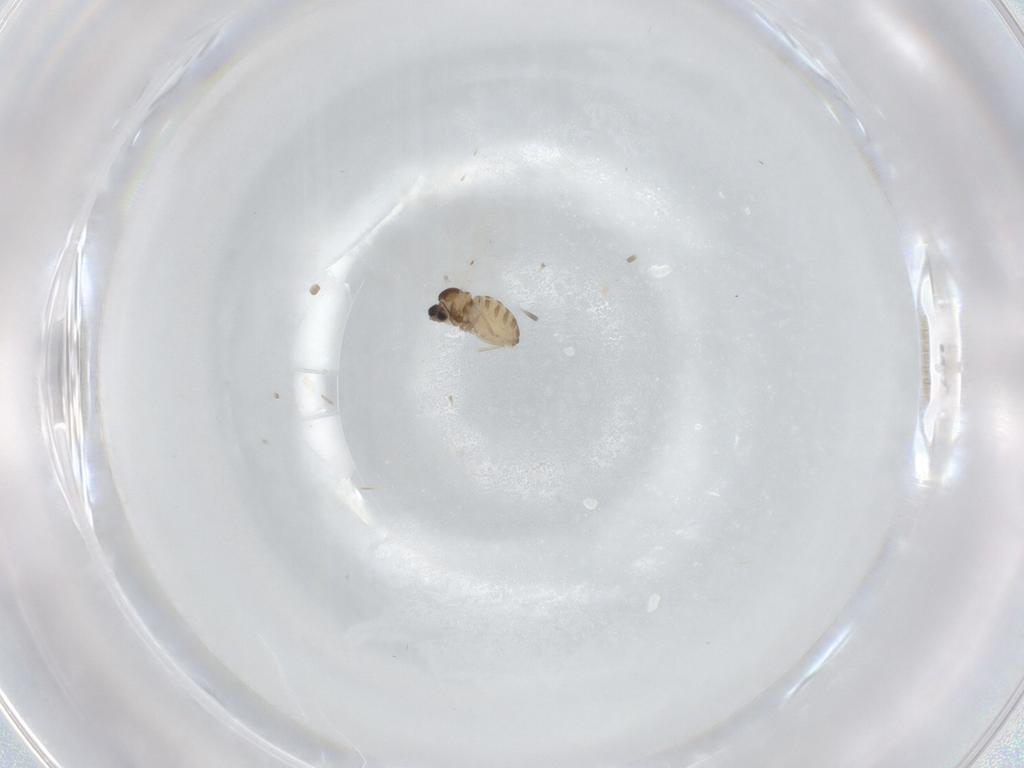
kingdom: Animalia
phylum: Arthropoda
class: Insecta
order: Diptera
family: Cecidomyiidae
